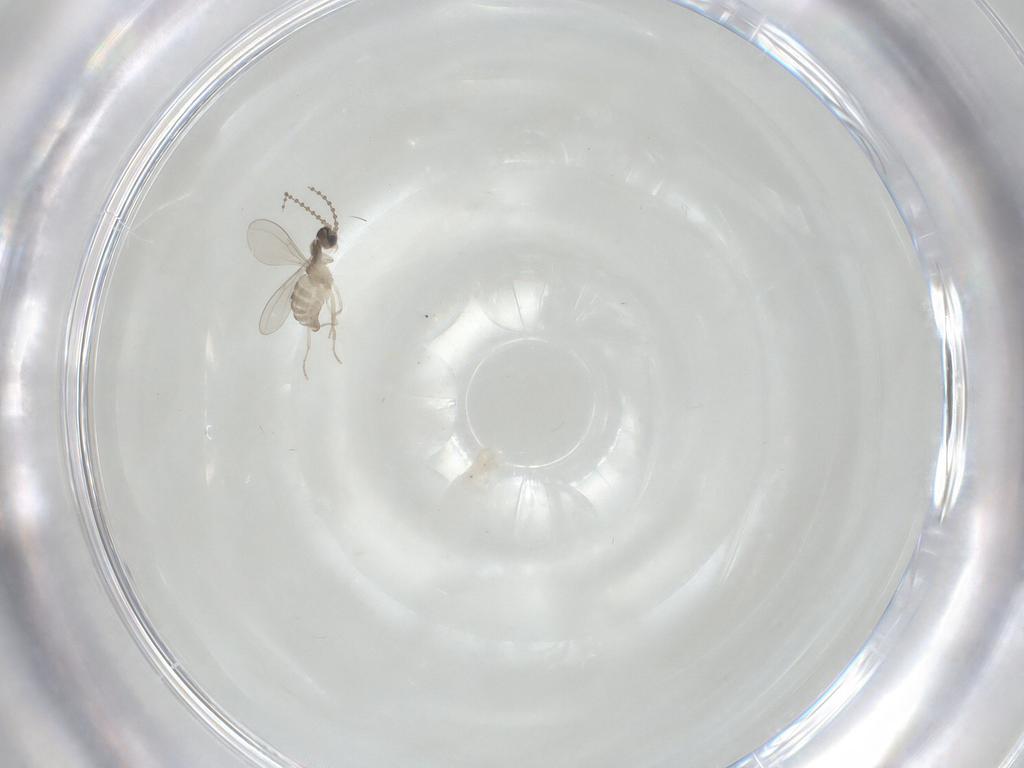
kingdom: Animalia
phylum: Arthropoda
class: Insecta
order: Diptera
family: Cecidomyiidae
